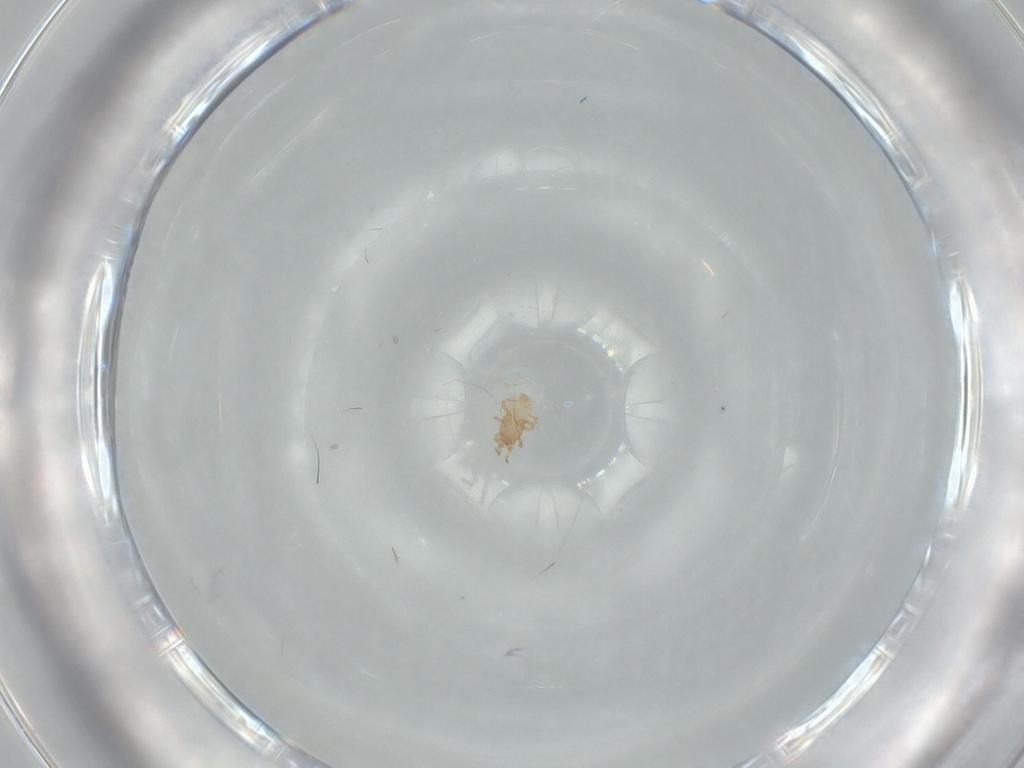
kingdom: Animalia
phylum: Arthropoda
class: Arachnida
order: Mesostigmata
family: Ascidae
